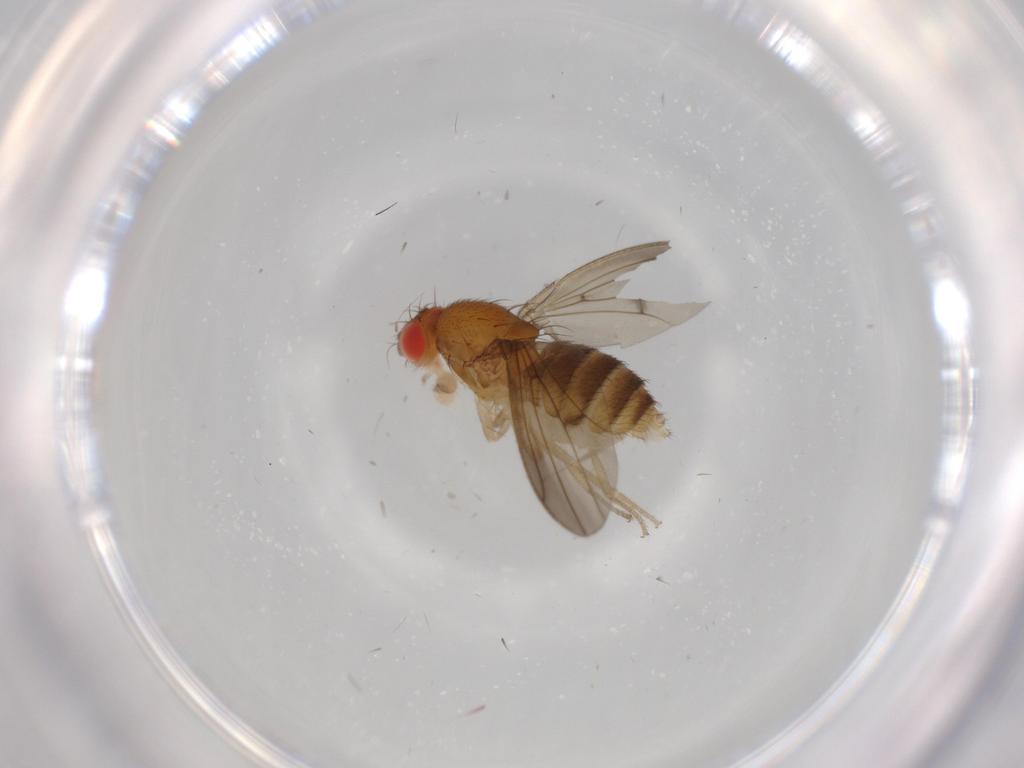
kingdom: Animalia
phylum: Arthropoda
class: Insecta
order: Diptera
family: Drosophilidae
